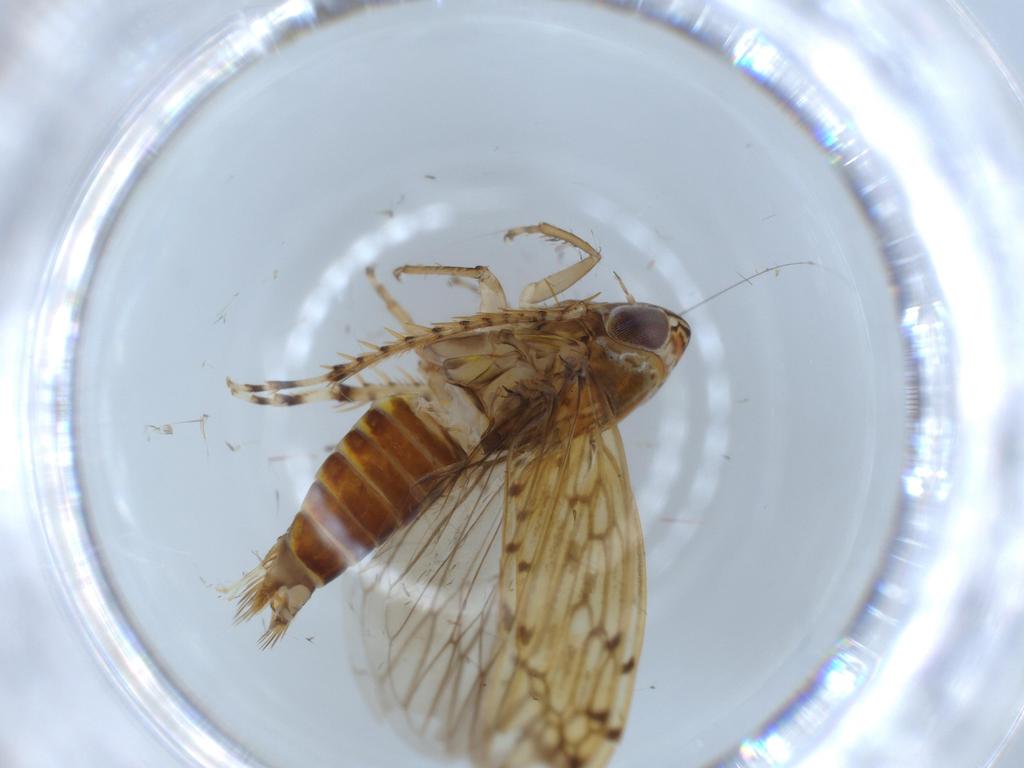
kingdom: Animalia
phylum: Arthropoda
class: Insecta
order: Hemiptera
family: Cicadellidae
